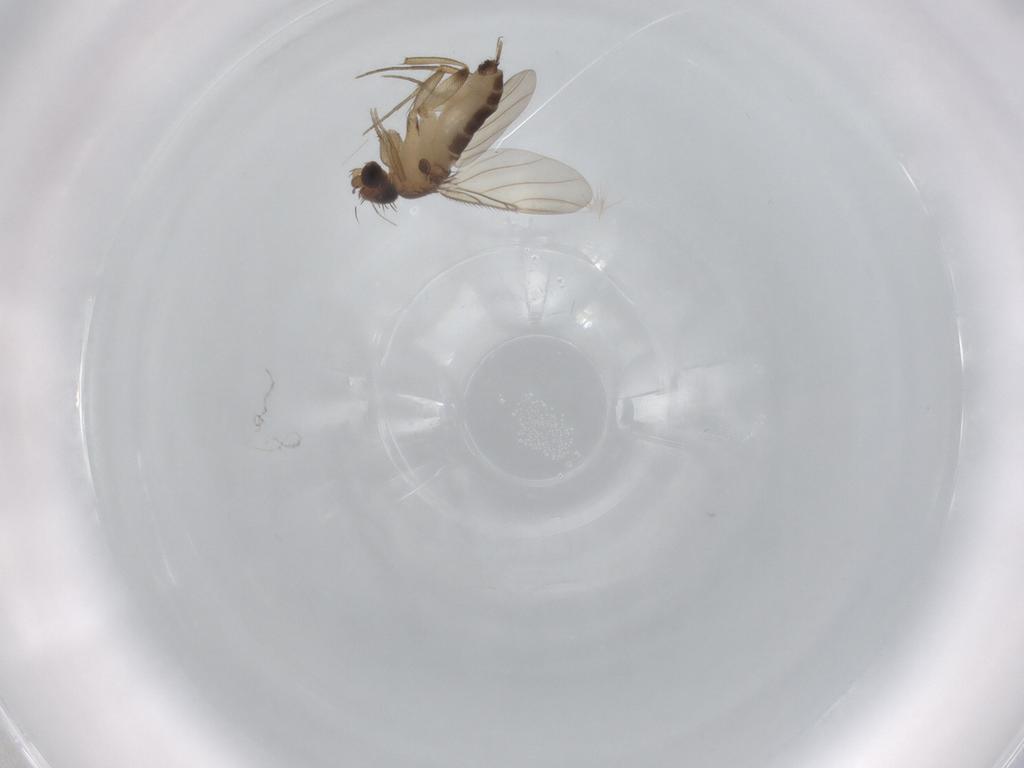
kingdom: Animalia
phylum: Arthropoda
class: Insecta
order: Diptera
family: Phoridae
